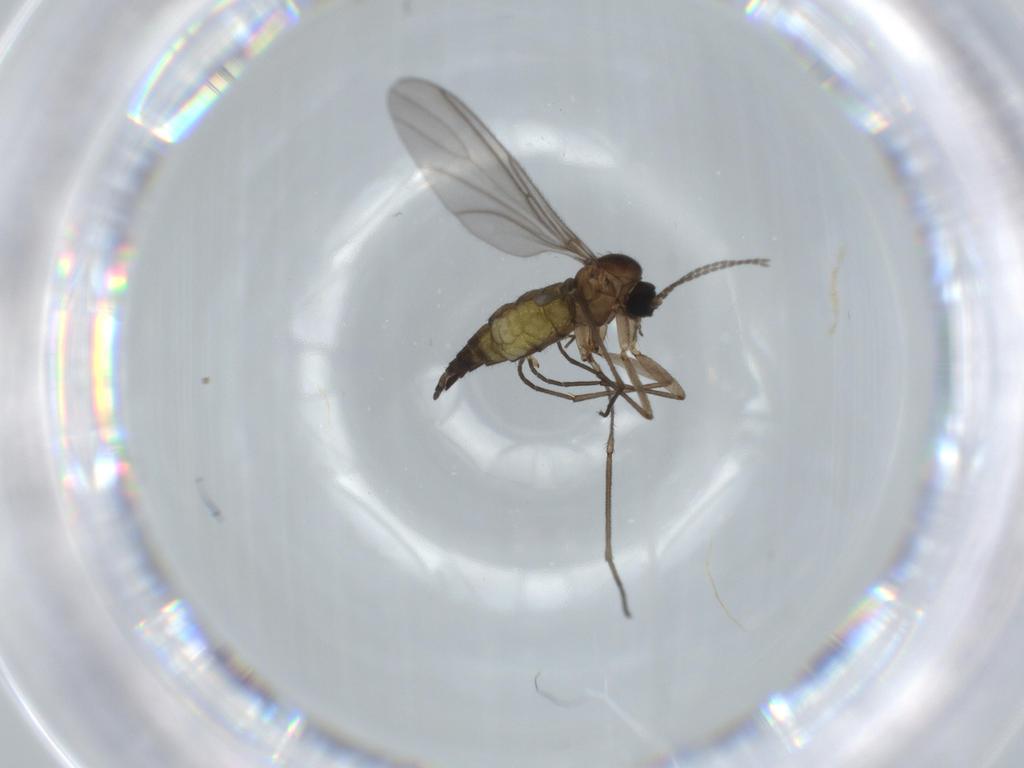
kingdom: Animalia
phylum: Arthropoda
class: Insecta
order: Diptera
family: Sciaridae
